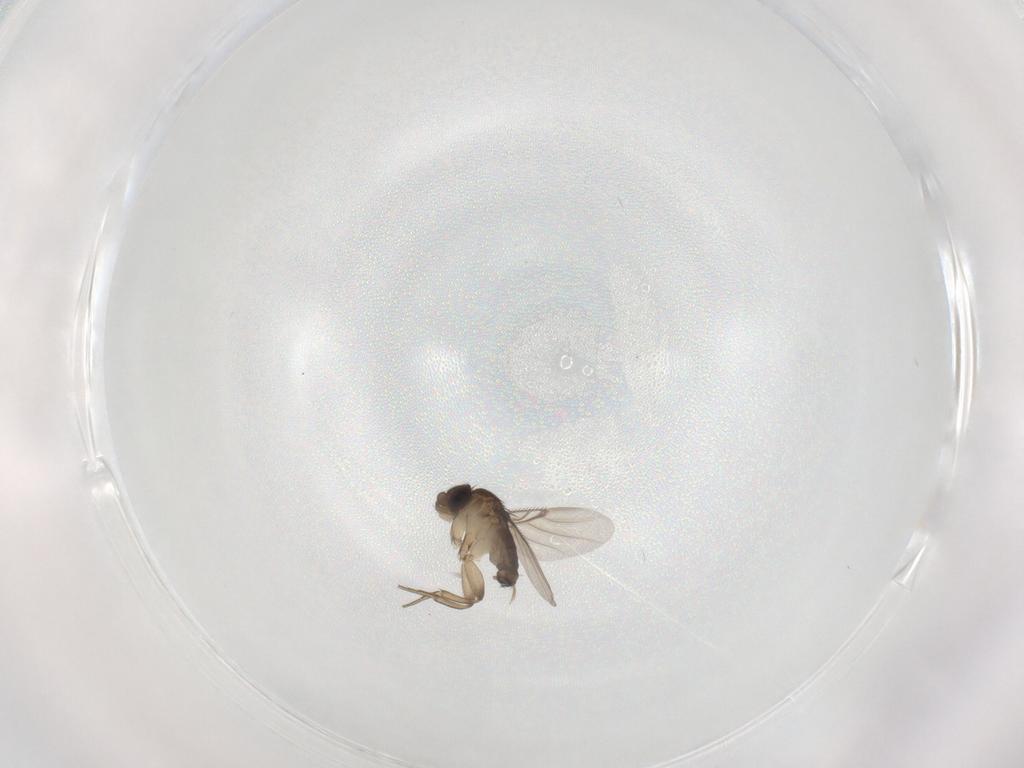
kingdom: Animalia
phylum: Arthropoda
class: Insecta
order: Diptera
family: Phoridae
